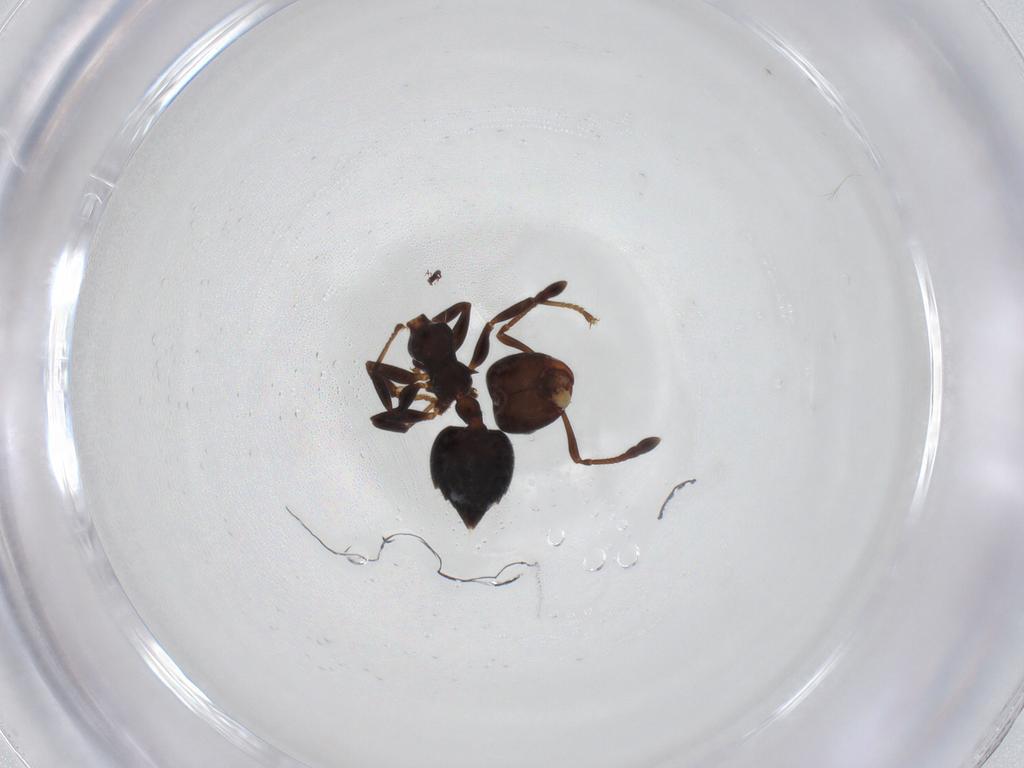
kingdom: Animalia
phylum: Arthropoda
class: Insecta
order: Hymenoptera
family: Formicidae
